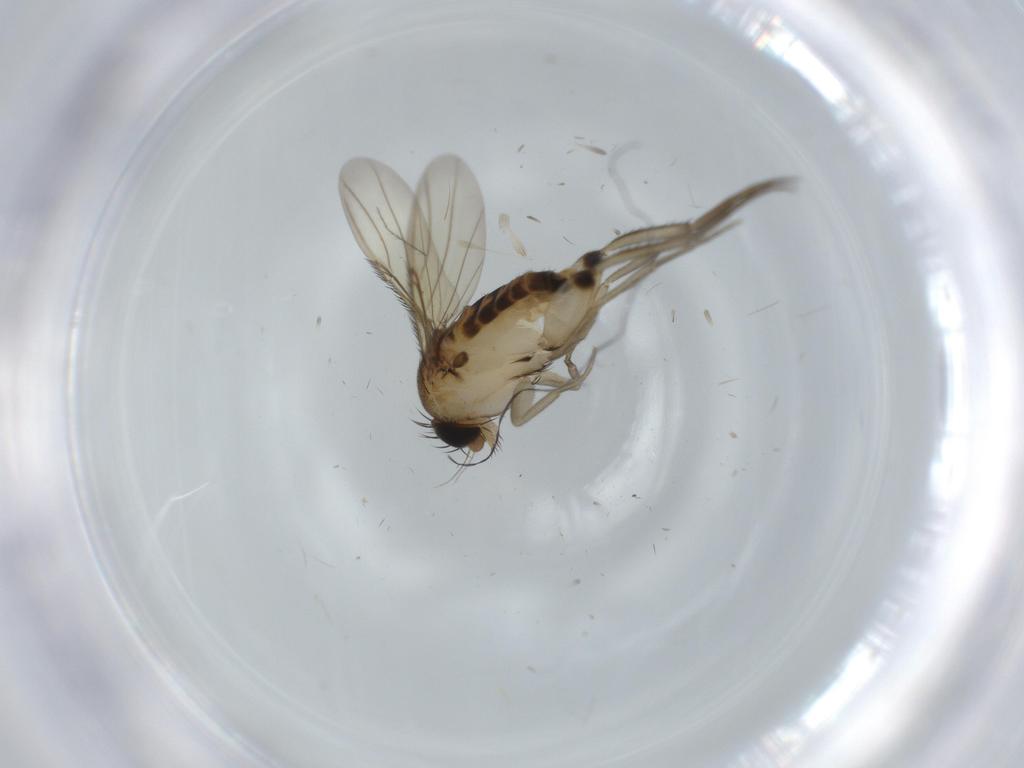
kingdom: Animalia
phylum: Arthropoda
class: Insecta
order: Diptera
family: Phoridae
